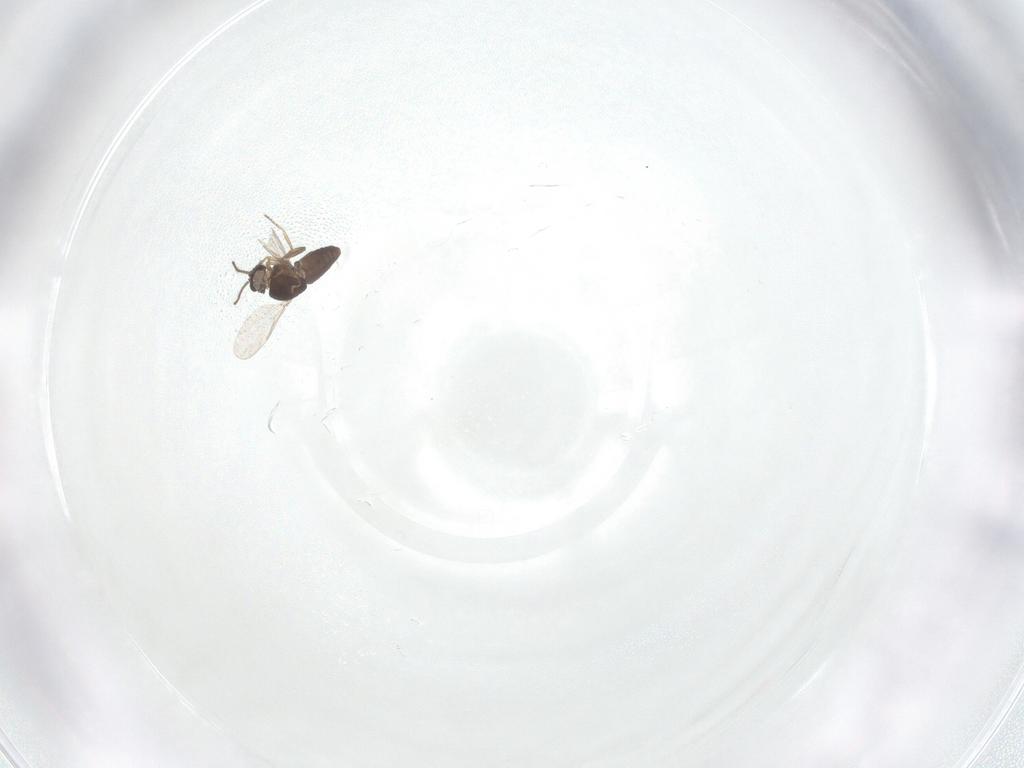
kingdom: Animalia
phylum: Arthropoda
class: Insecta
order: Diptera
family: Ceratopogonidae
